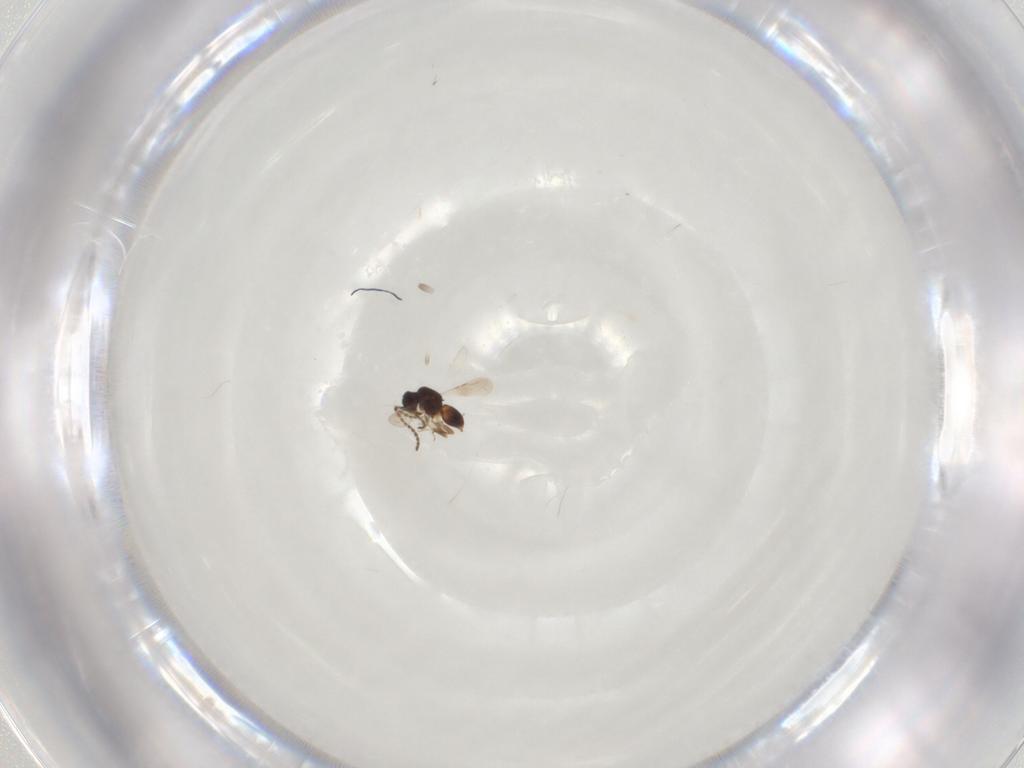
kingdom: Animalia
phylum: Arthropoda
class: Insecta
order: Hymenoptera
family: Bethylidae
